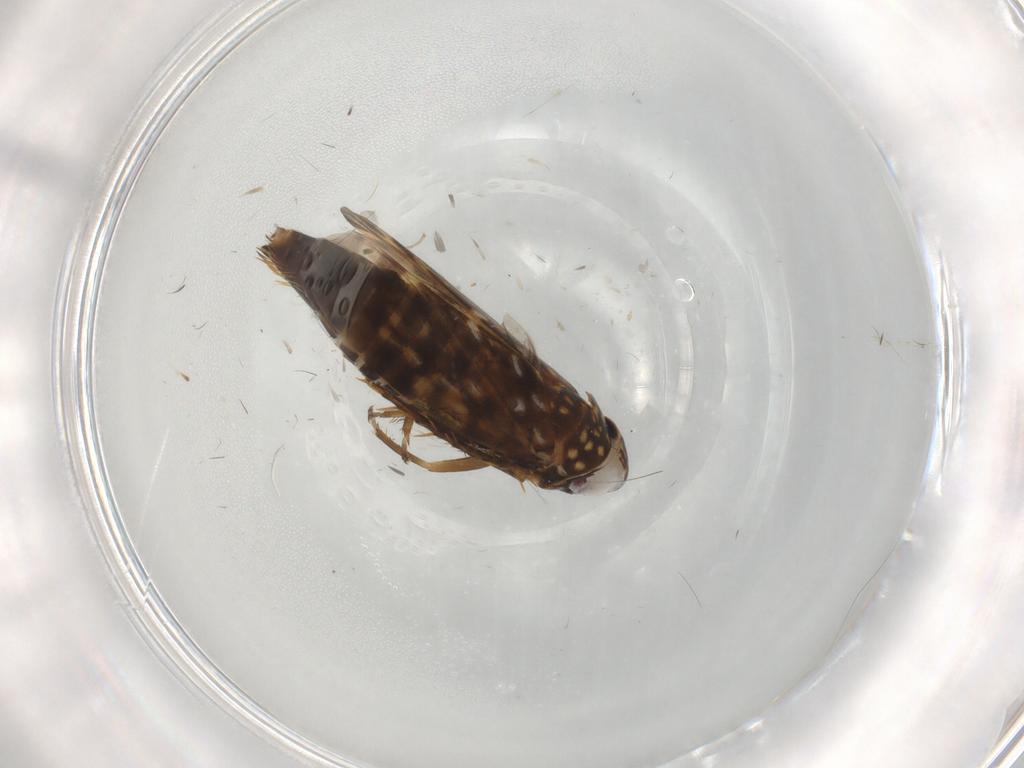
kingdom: Animalia
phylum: Arthropoda
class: Insecta
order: Hemiptera
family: Cicadellidae
